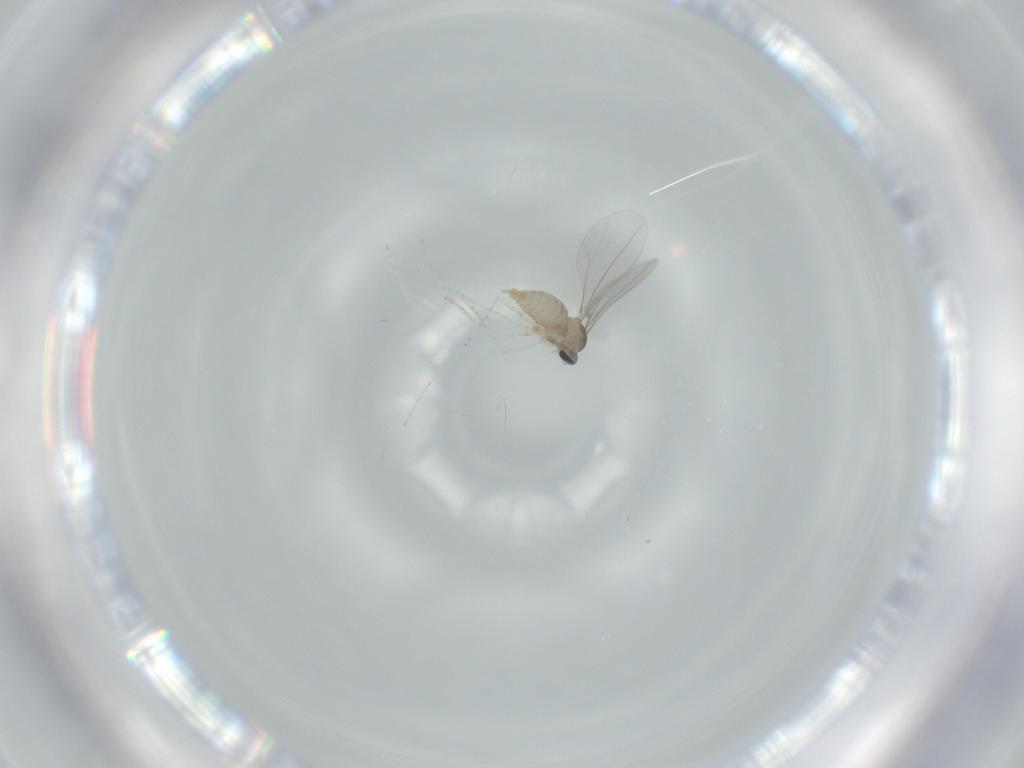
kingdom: Animalia
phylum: Arthropoda
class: Insecta
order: Diptera
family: Cecidomyiidae
